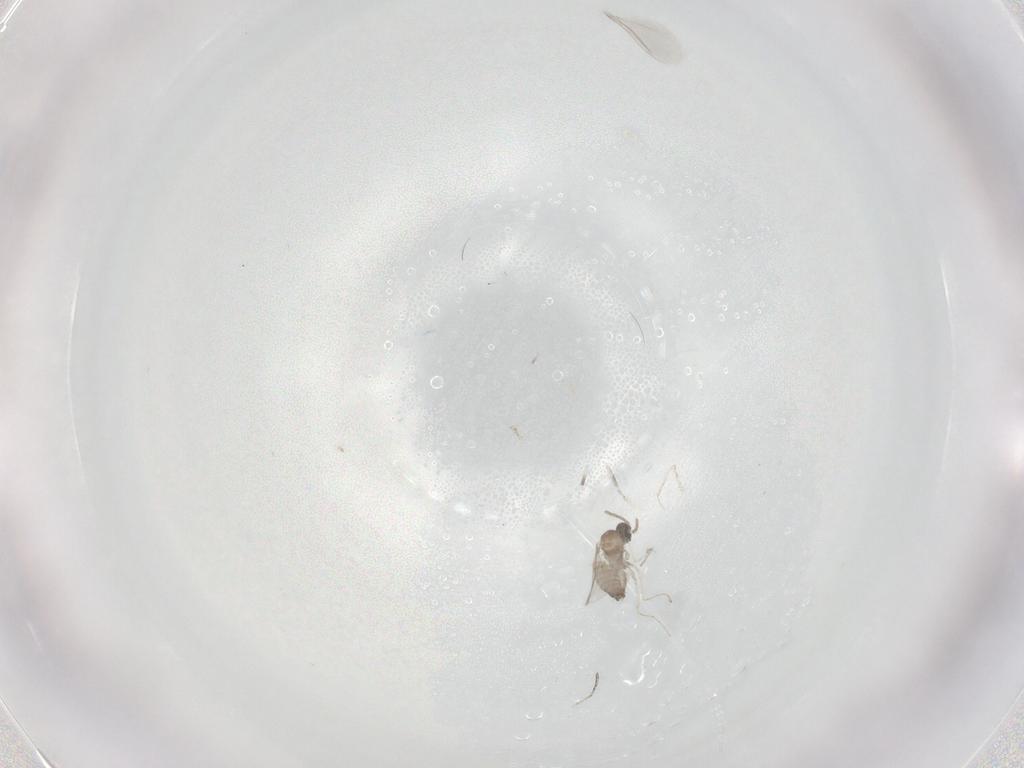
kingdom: Animalia
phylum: Arthropoda
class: Insecta
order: Diptera
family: Cecidomyiidae
